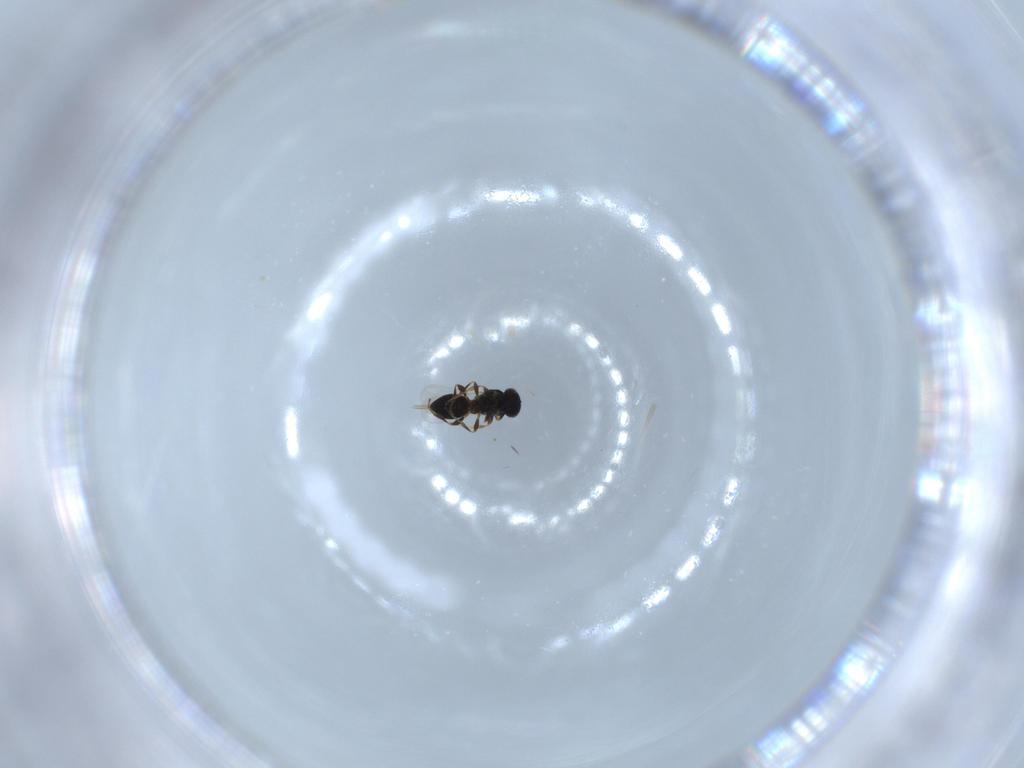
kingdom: Animalia
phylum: Arthropoda
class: Insecta
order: Hymenoptera
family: Platygastridae
